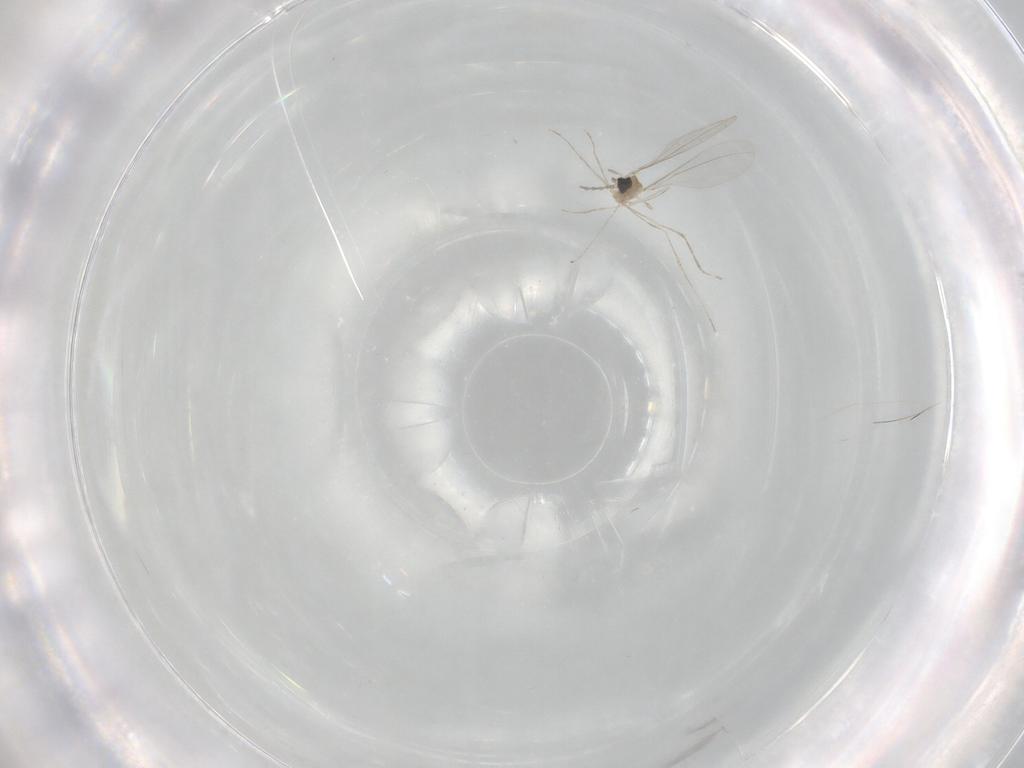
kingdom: Animalia
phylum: Arthropoda
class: Insecta
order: Diptera
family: Cecidomyiidae
